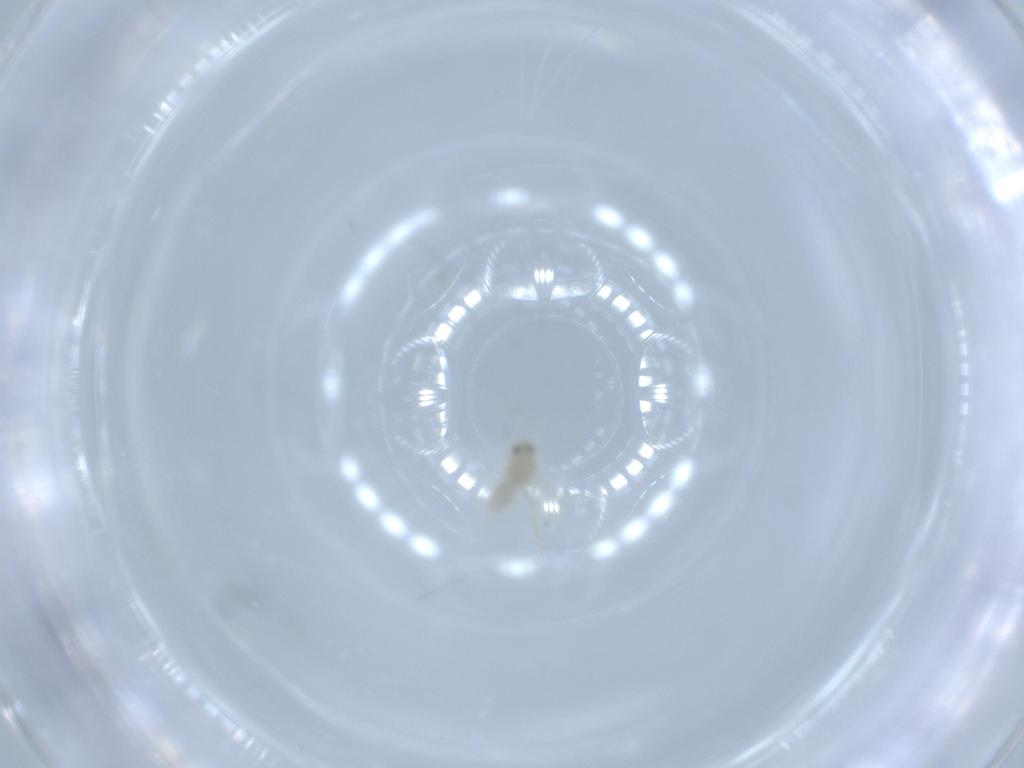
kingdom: Animalia
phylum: Arthropoda
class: Insecta
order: Hemiptera
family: Aleyrodidae
